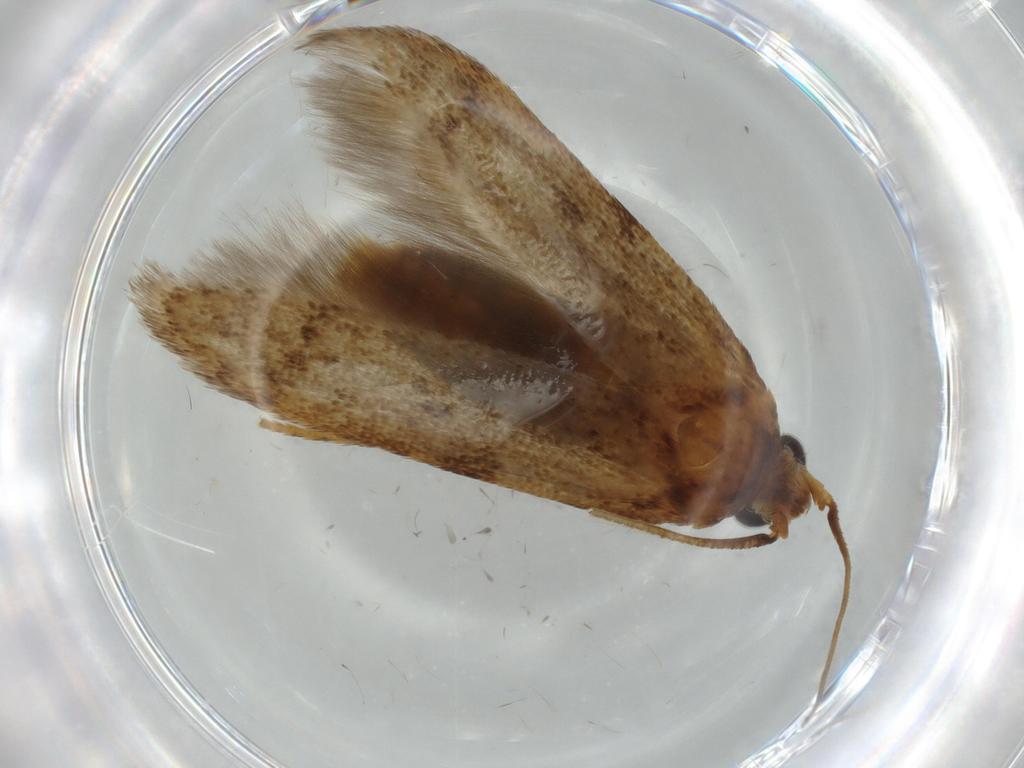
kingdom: Animalia
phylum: Arthropoda
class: Insecta
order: Lepidoptera
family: Blastobasidae
